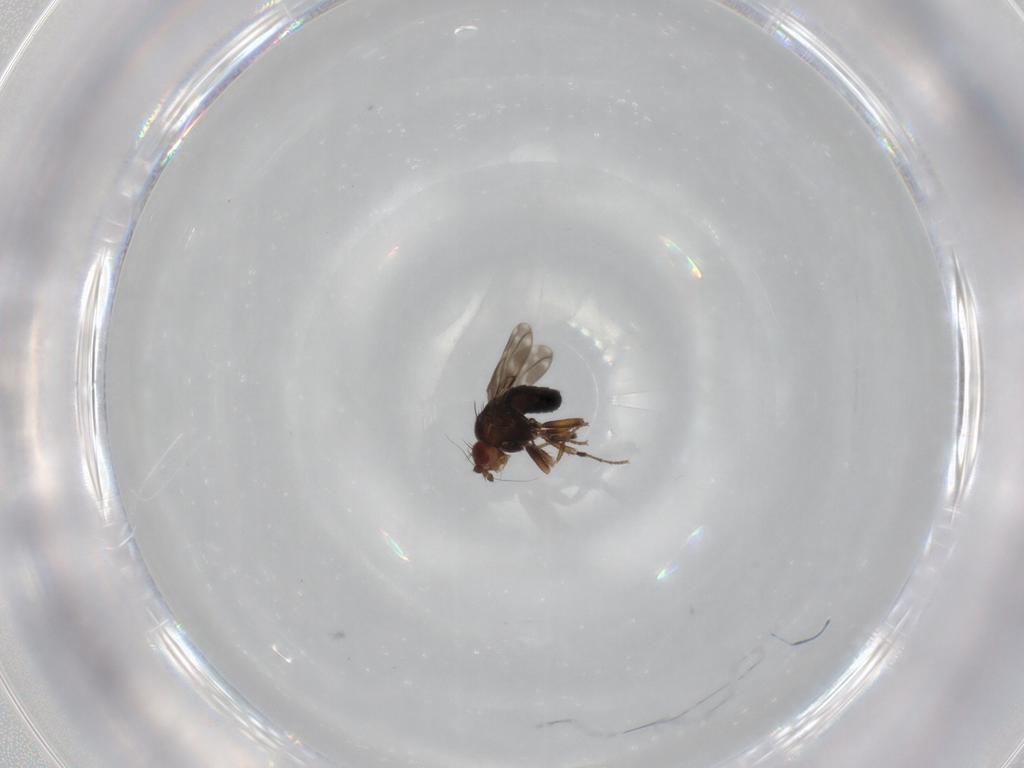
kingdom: Animalia
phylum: Arthropoda
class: Insecta
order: Diptera
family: Sphaeroceridae
